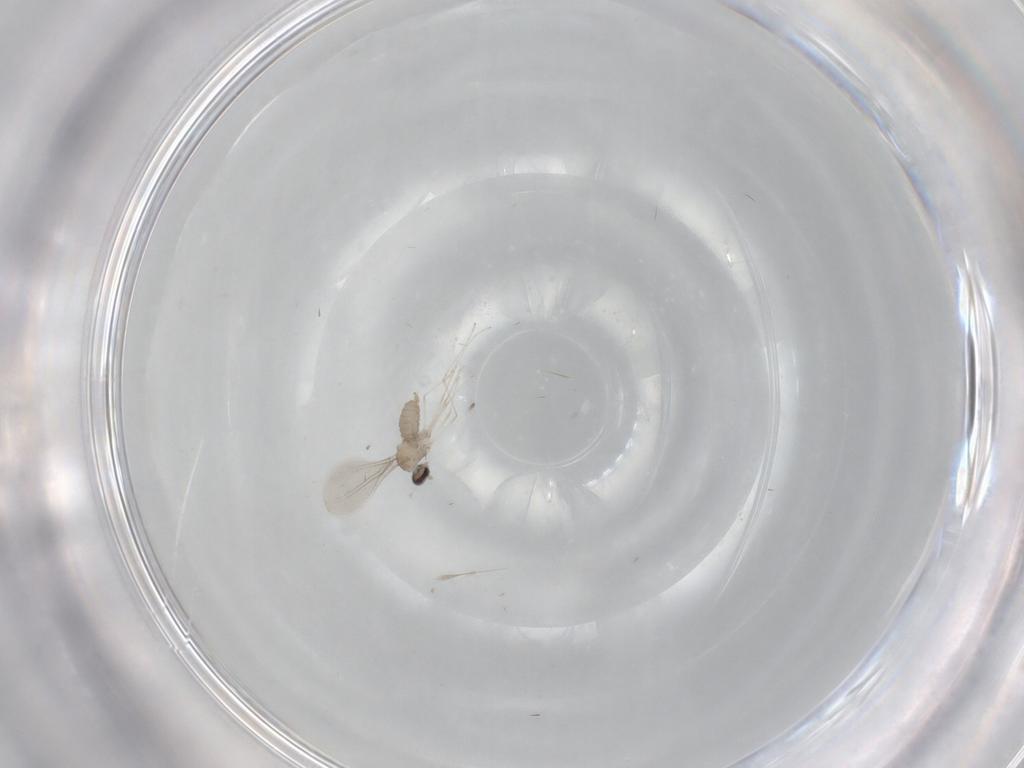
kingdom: Animalia
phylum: Arthropoda
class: Insecta
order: Diptera
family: Cecidomyiidae
